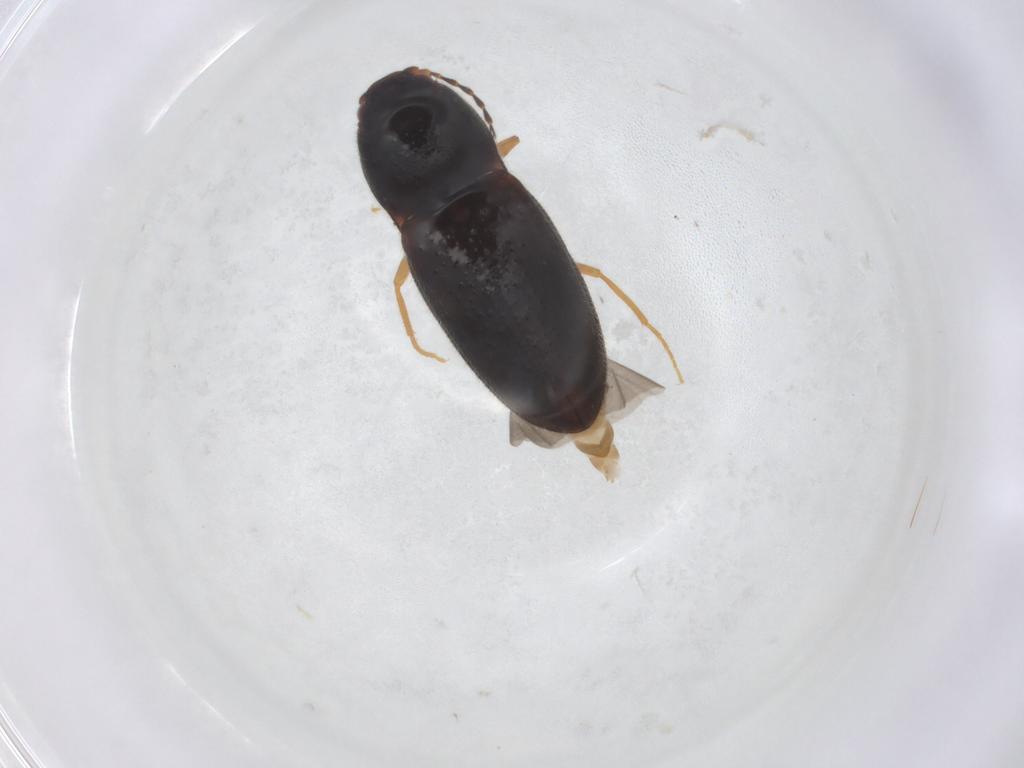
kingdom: Animalia
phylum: Arthropoda
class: Insecta
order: Coleoptera
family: Elateridae
